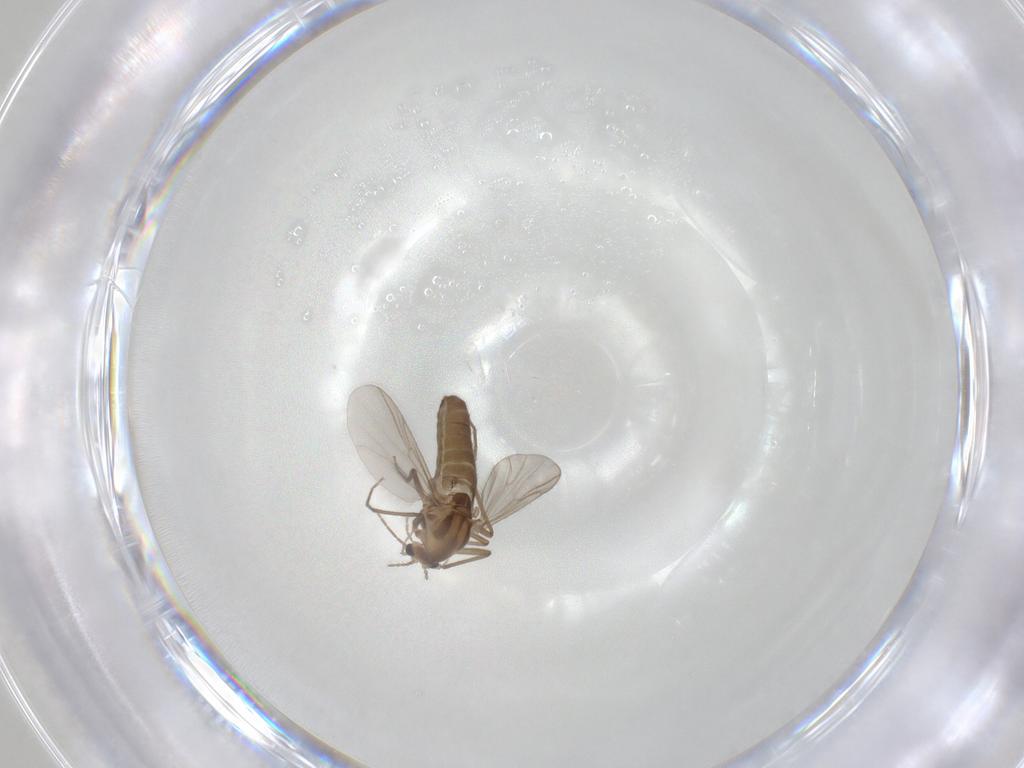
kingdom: Animalia
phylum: Arthropoda
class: Insecta
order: Diptera
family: Chironomidae
